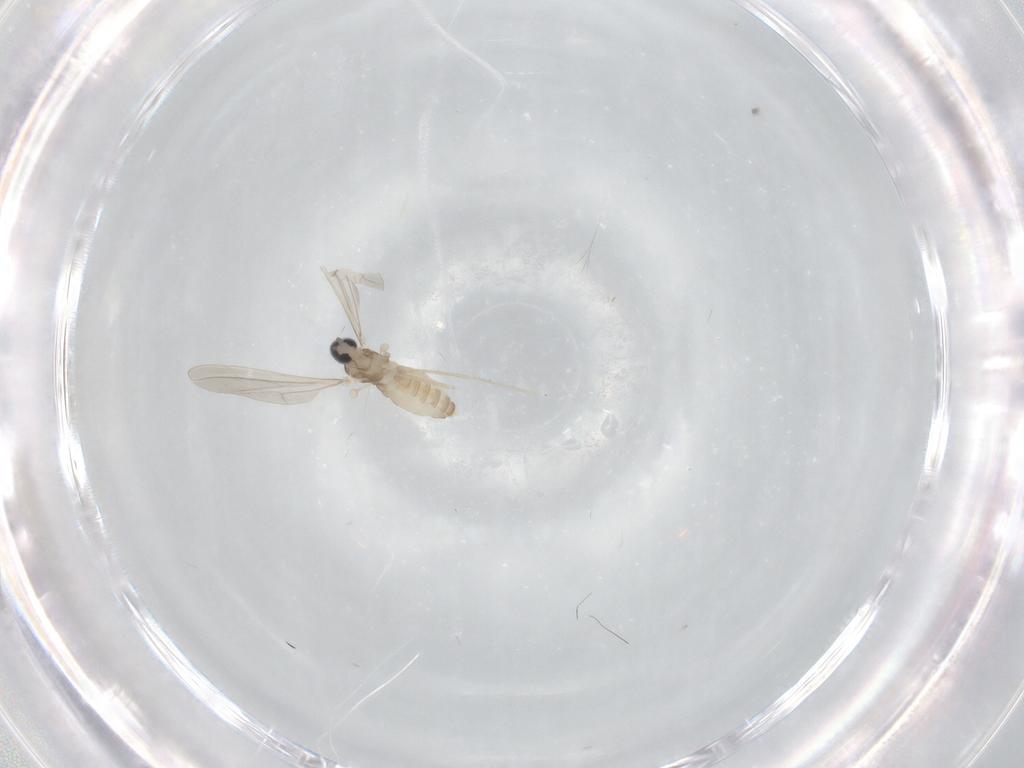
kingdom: Animalia
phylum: Arthropoda
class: Insecta
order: Diptera
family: Cecidomyiidae
